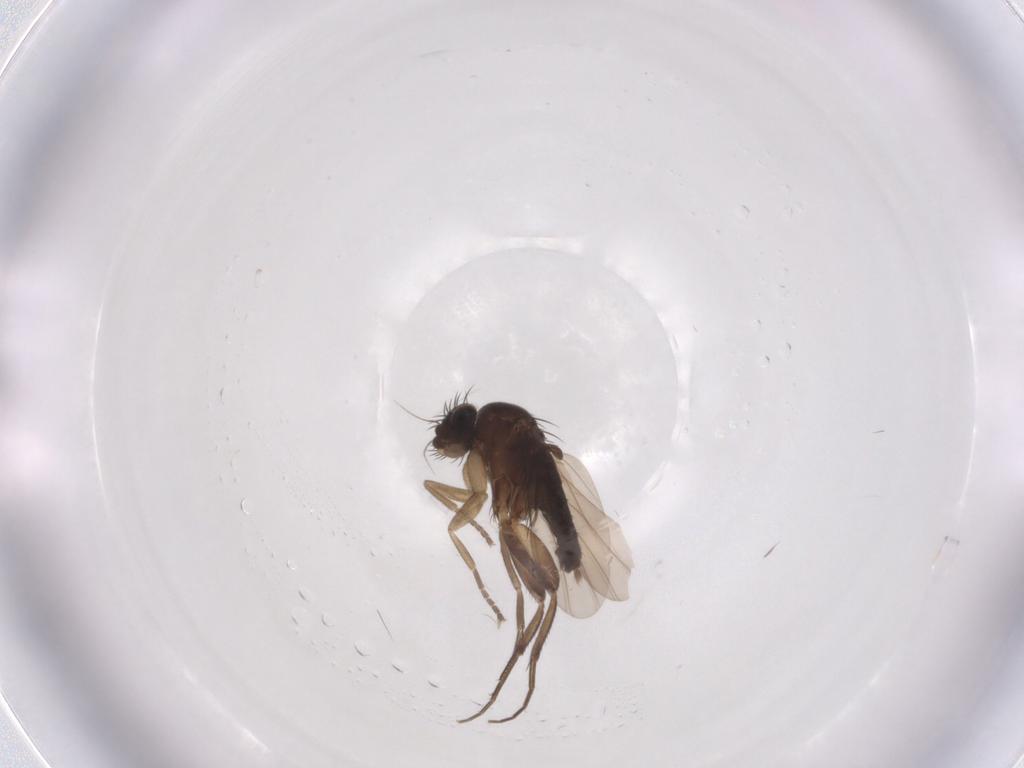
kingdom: Animalia
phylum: Arthropoda
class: Insecta
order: Diptera
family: Phoridae
